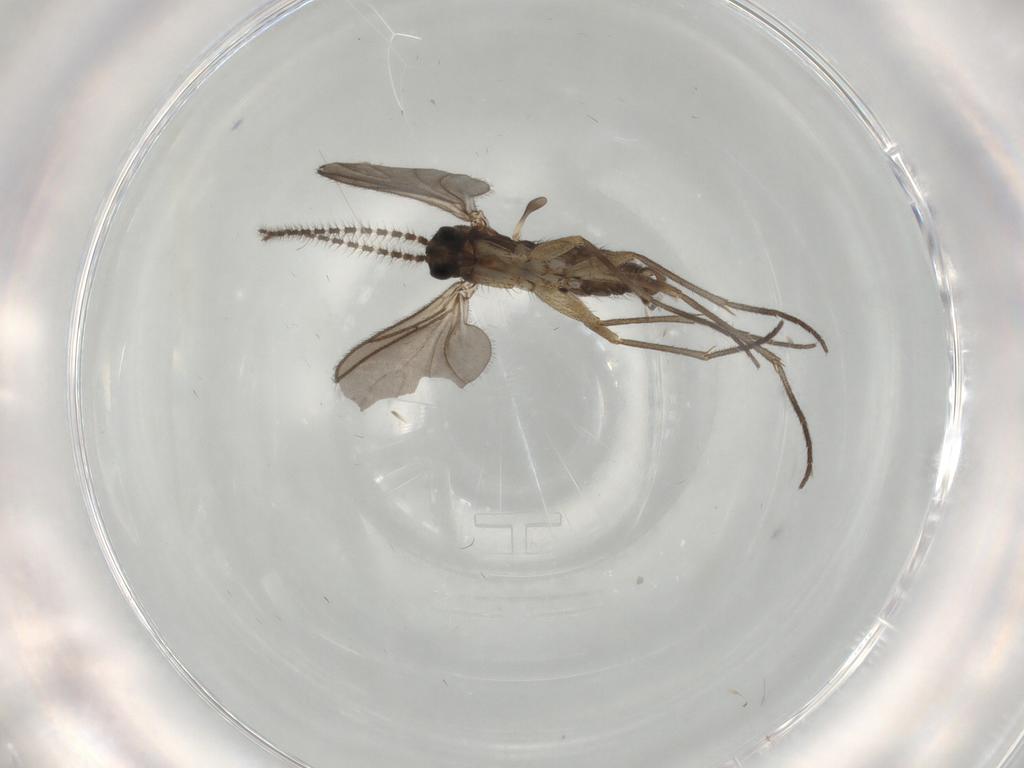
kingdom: Animalia
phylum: Arthropoda
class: Insecta
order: Diptera
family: Sciaridae
